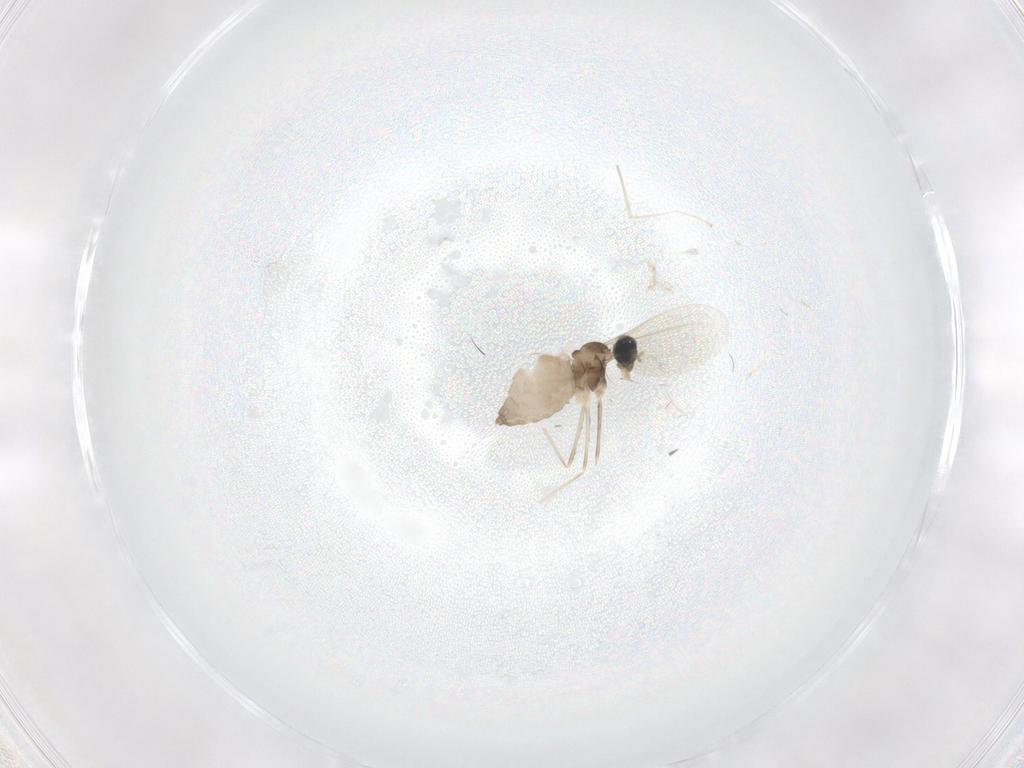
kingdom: Animalia
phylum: Arthropoda
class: Insecta
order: Diptera
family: Cecidomyiidae
